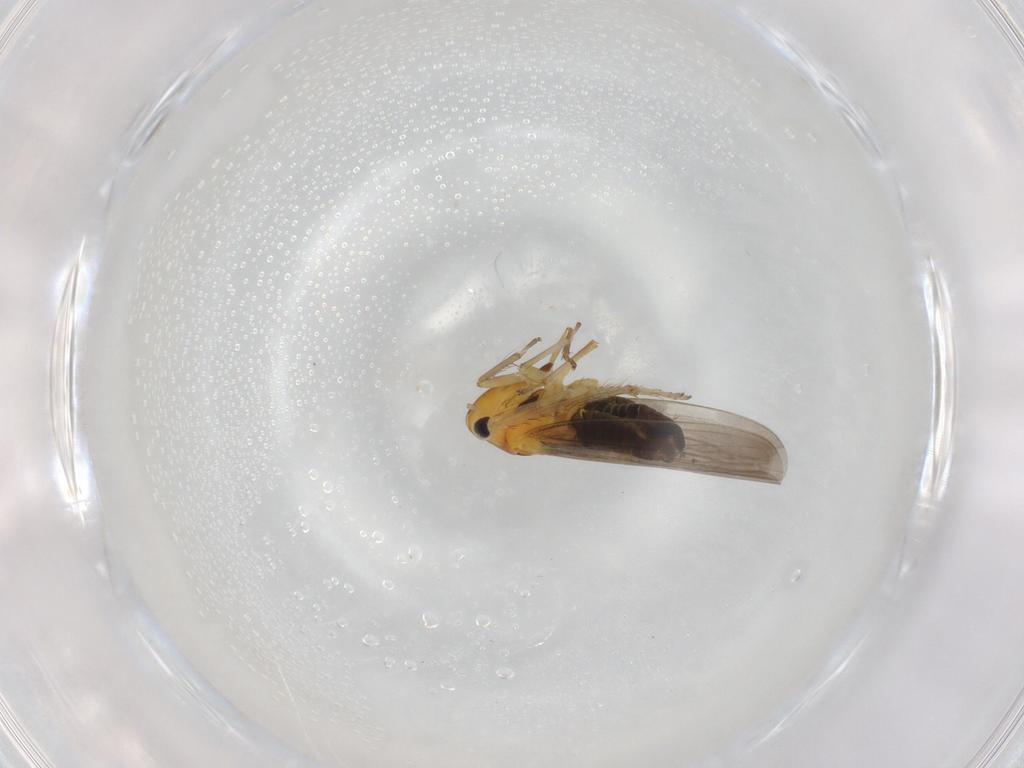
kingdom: Animalia
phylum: Arthropoda
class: Insecta
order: Hemiptera
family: Cicadellidae
